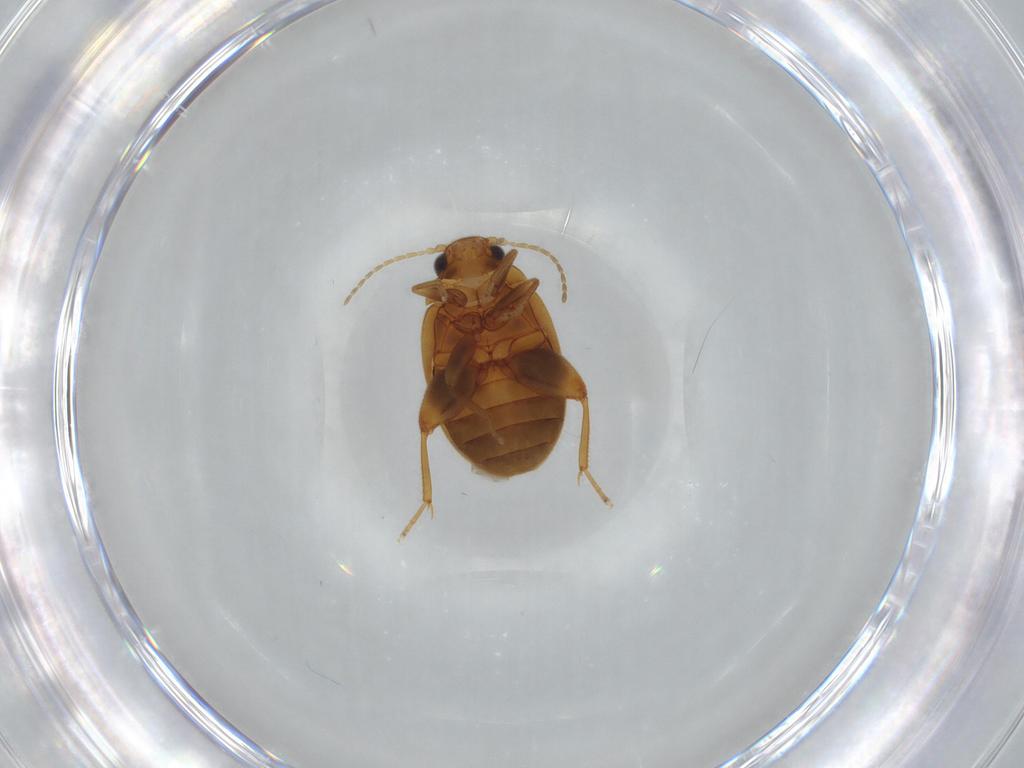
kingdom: Animalia
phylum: Arthropoda
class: Insecta
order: Coleoptera
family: Scirtidae
